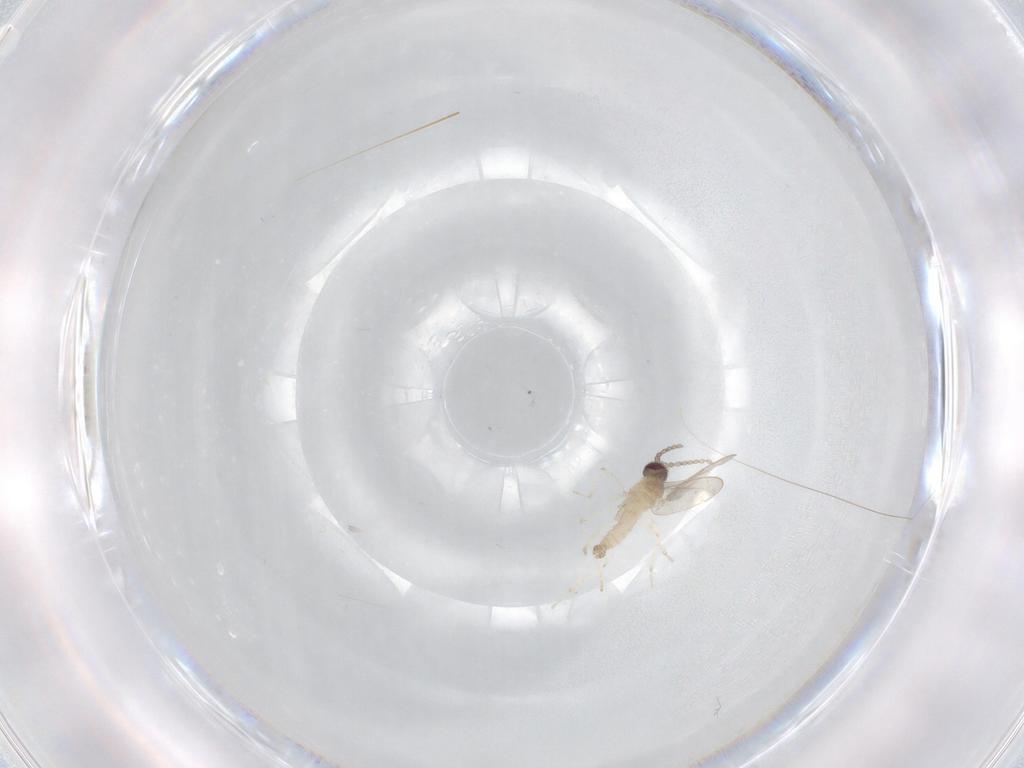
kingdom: Animalia
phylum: Arthropoda
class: Insecta
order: Diptera
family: Cecidomyiidae
